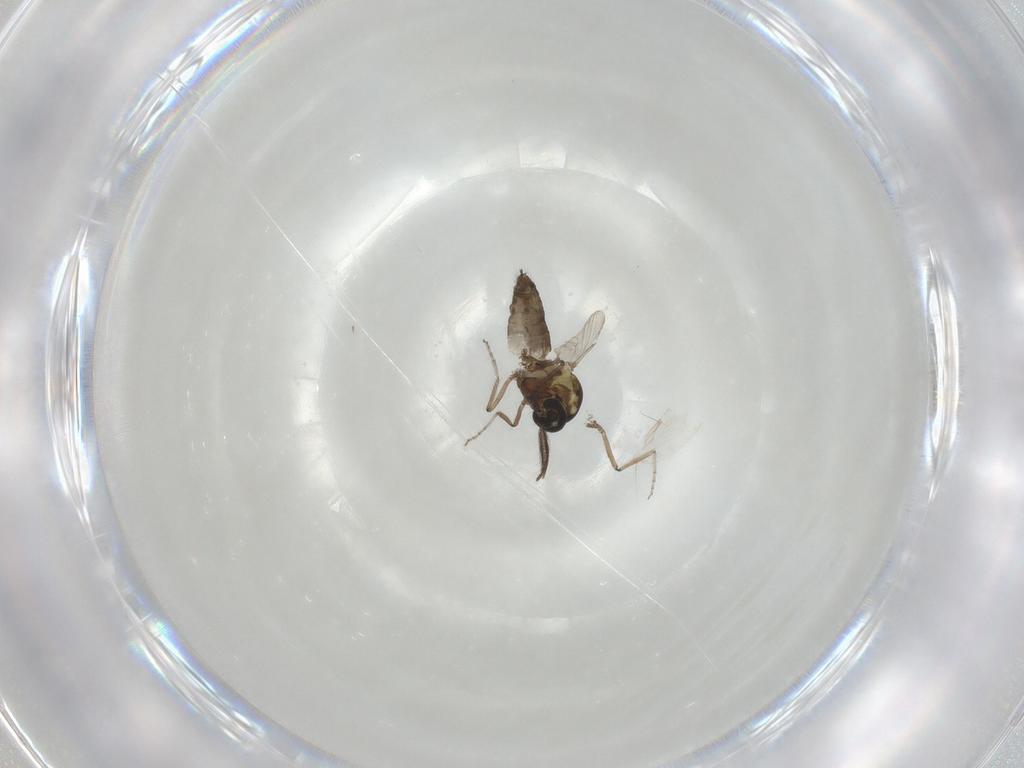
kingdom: Animalia
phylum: Arthropoda
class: Insecta
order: Diptera
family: Ceratopogonidae
